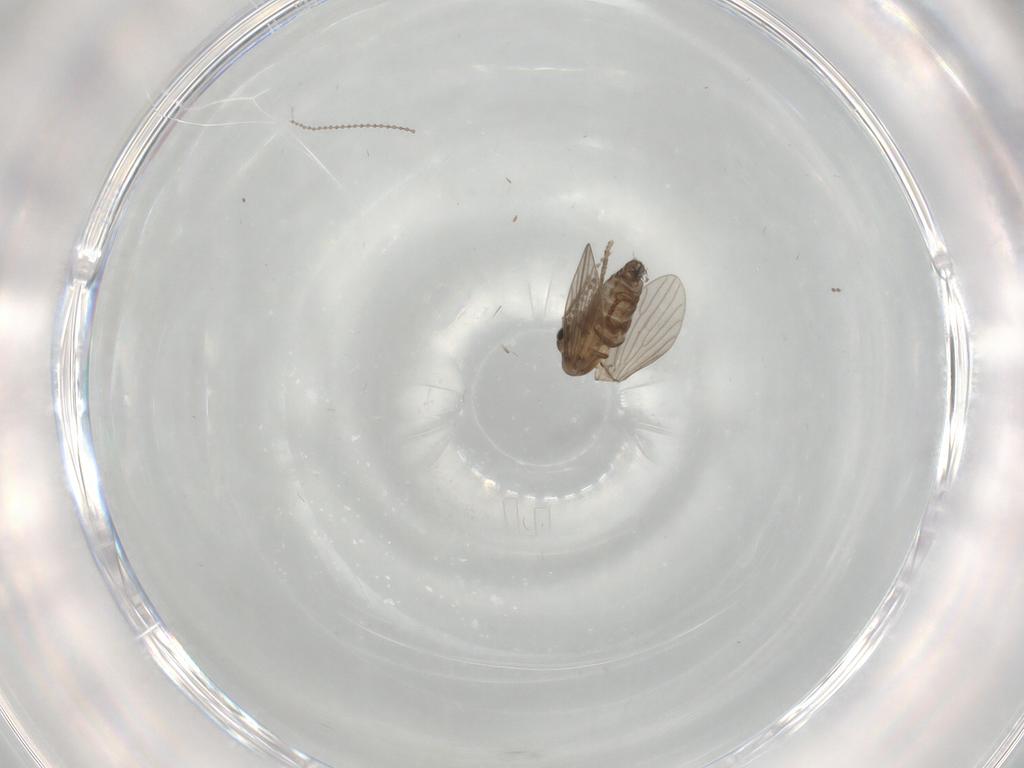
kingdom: Animalia
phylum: Arthropoda
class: Insecta
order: Diptera
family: Psychodidae
